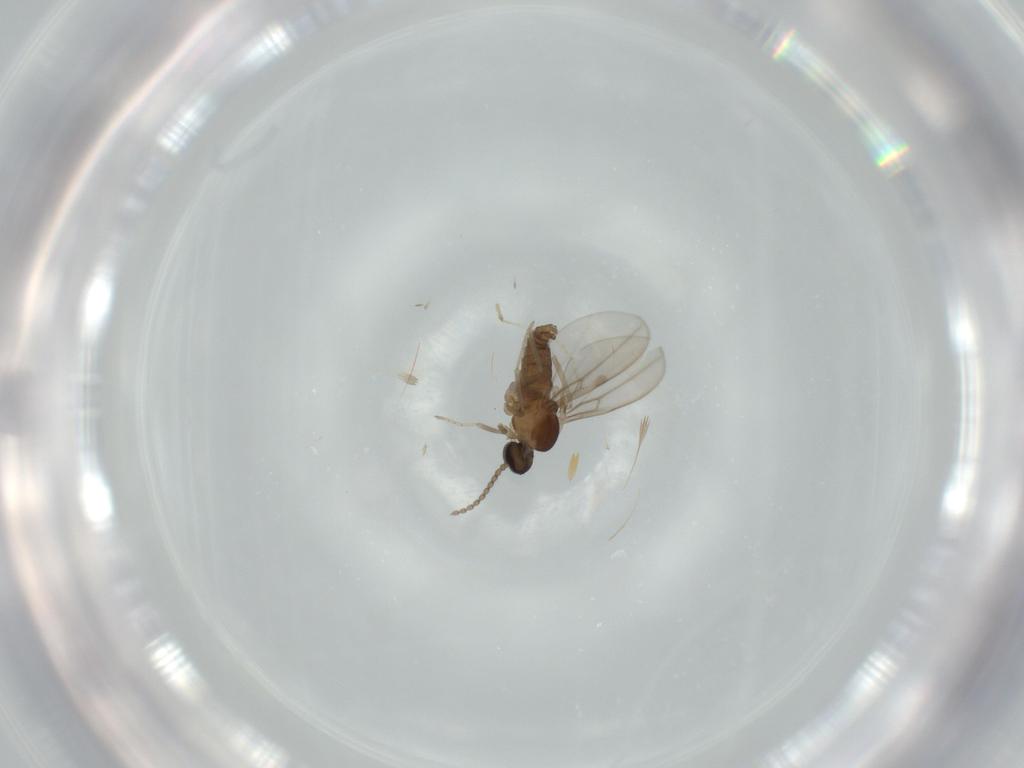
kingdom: Animalia
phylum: Arthropoda
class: Insecta
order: Diptera
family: Cecidomyiidae
